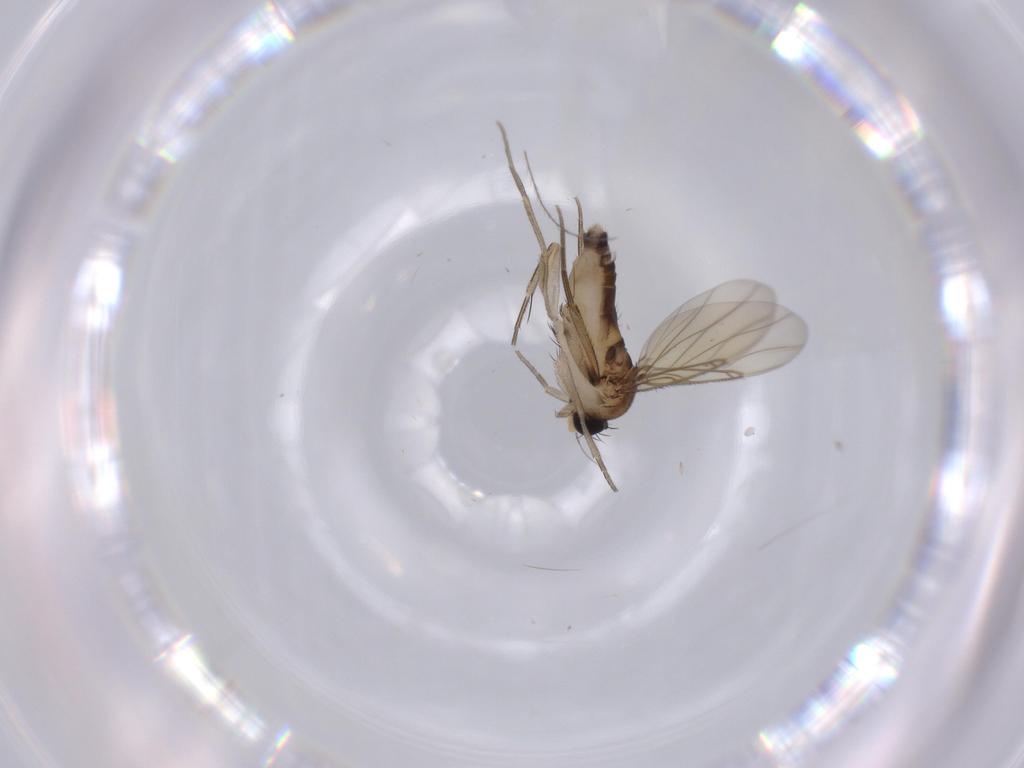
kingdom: Animalia
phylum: Arthropoda
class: Insecta
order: Diptera
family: Phoridae
